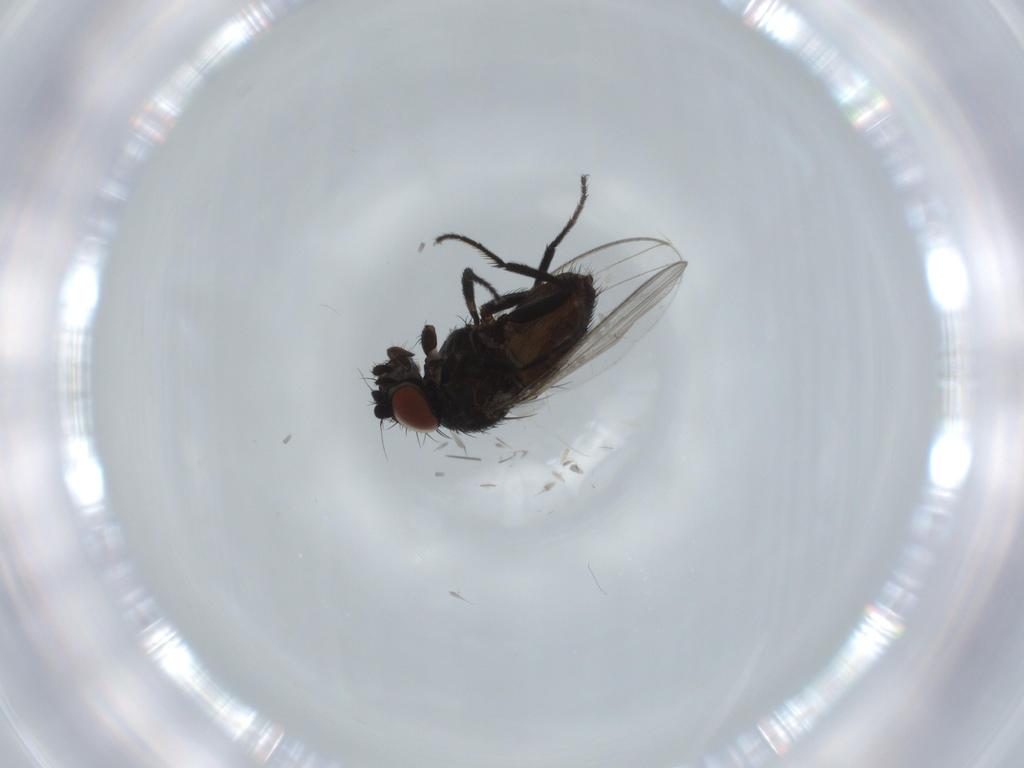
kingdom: Animalia
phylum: Arthropoda
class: Insecta
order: Diptera
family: Milichiidae
